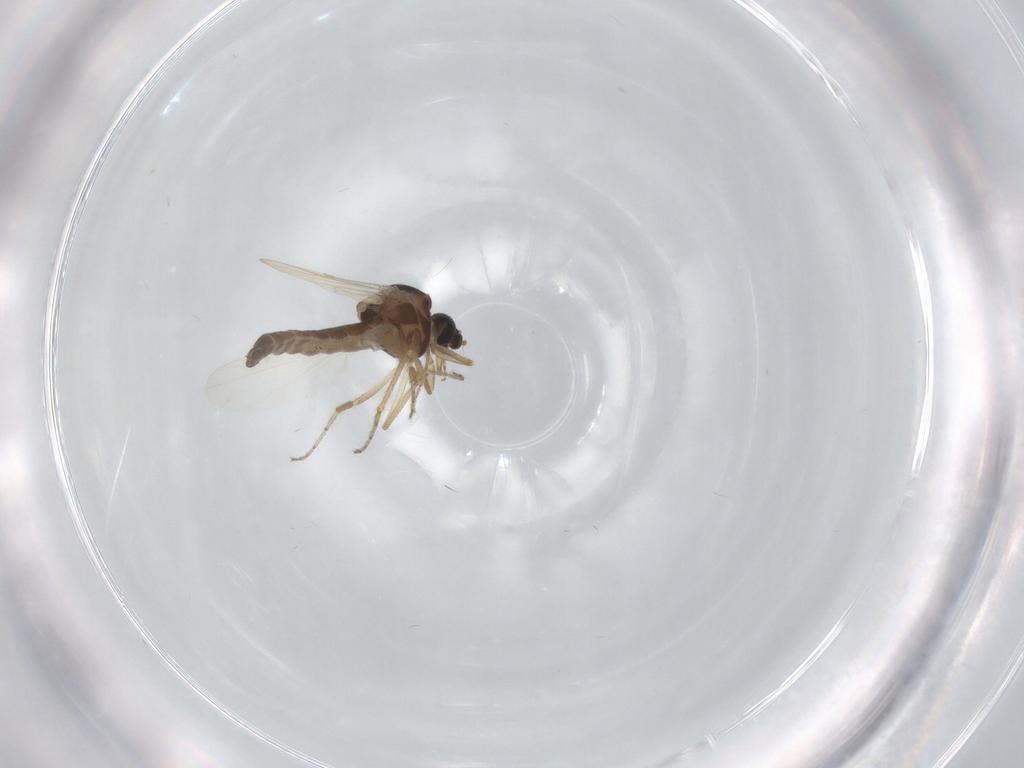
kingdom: Animalia
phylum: Arthropoda
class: Insecta
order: Diptera
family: Ceratopogonidae
